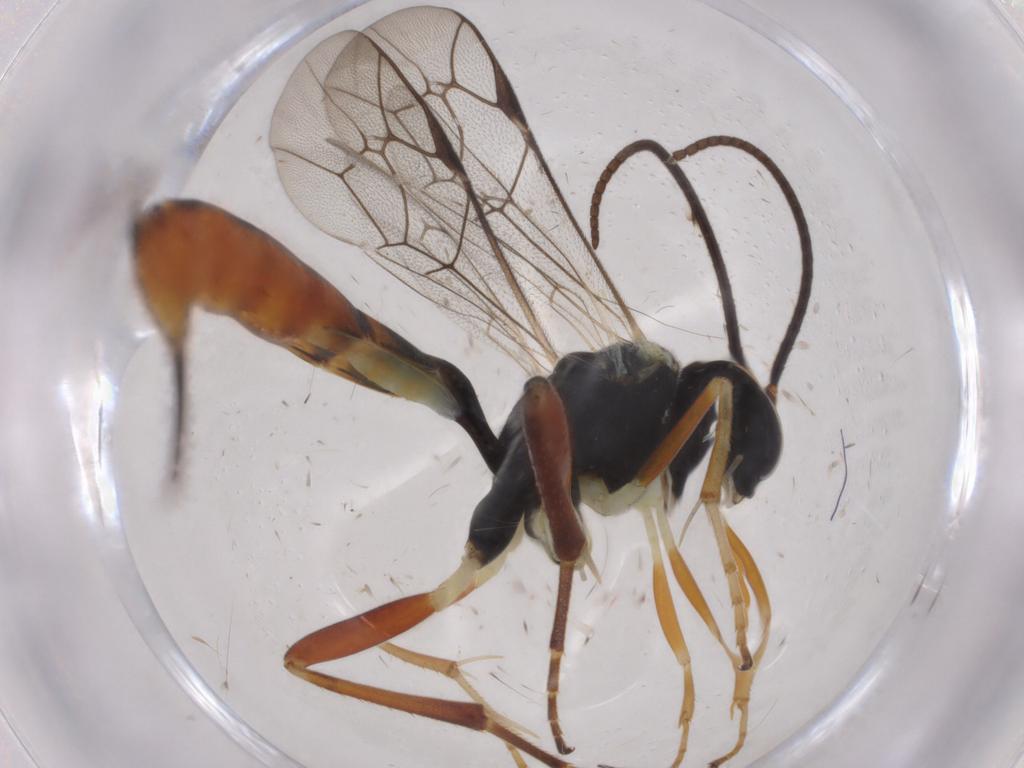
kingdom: Animalia
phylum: Arthropoda
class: Insecta
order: Hymenoptera
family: Ichneumonidae
